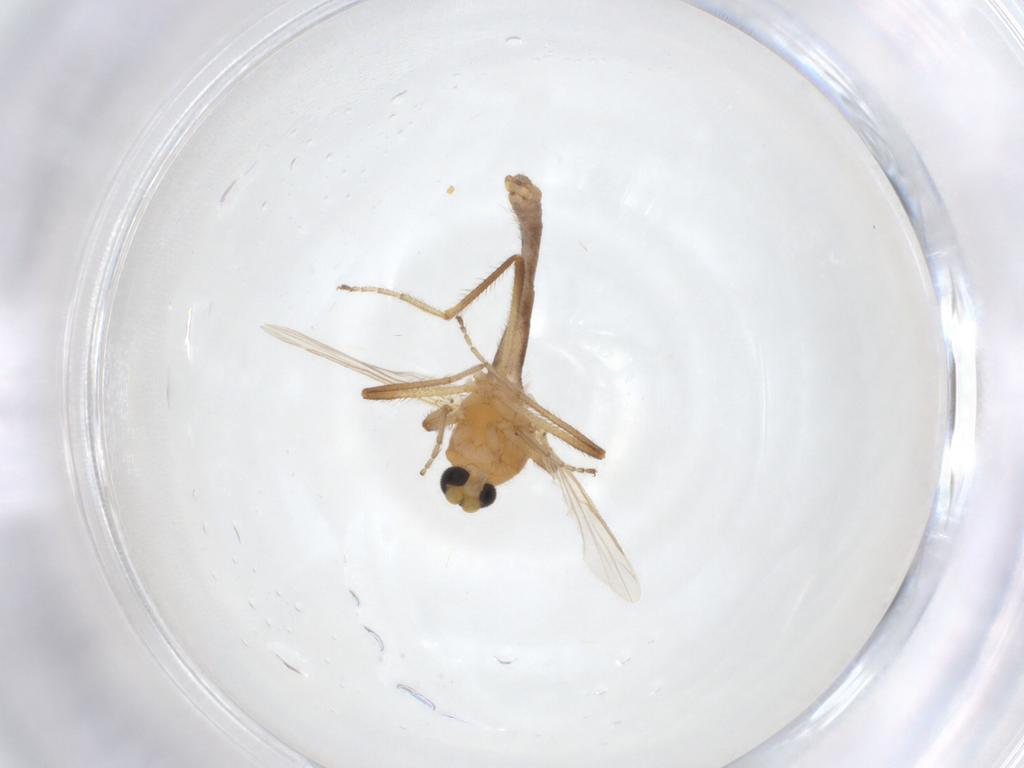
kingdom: Animalia
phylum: Arthropoda
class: Insecta
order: Diptera
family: Ceratopogonidae
